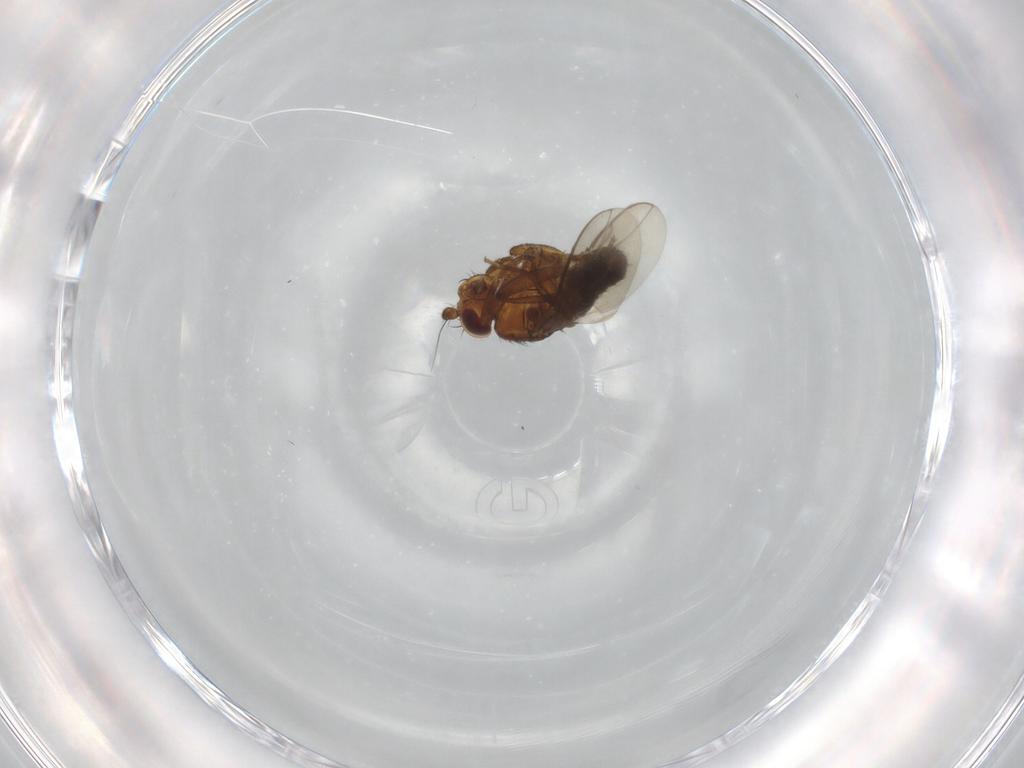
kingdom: Animalia
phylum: Arthropoda
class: Insecta
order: Diptera
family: Sphaeroceridae
